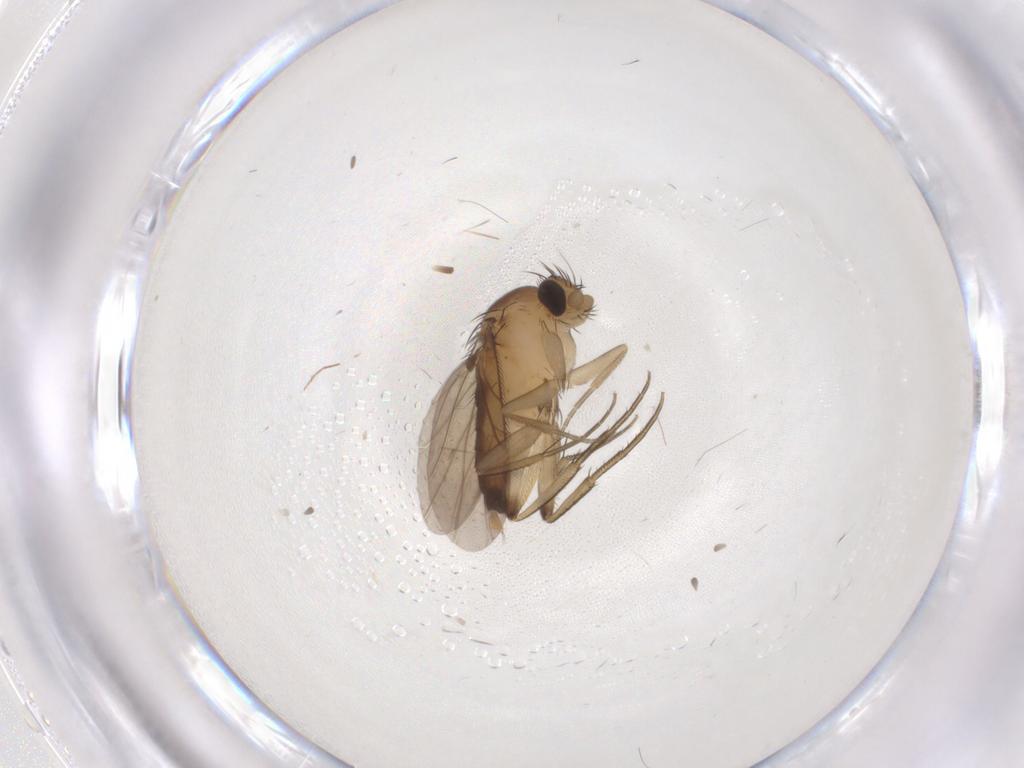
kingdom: Animalia
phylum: Arthropoda
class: Insecta
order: Diptera
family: Phoridae
